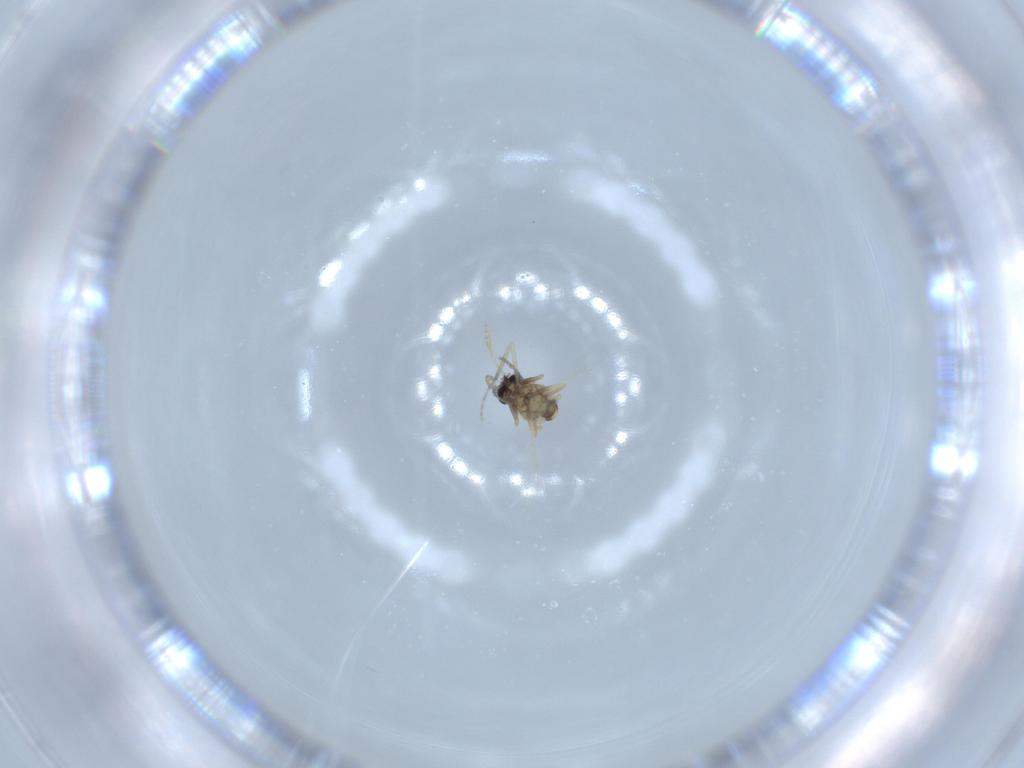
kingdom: Animalia
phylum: Arthropoda
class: Insecta
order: Diptera
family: Ceratopogonidae
